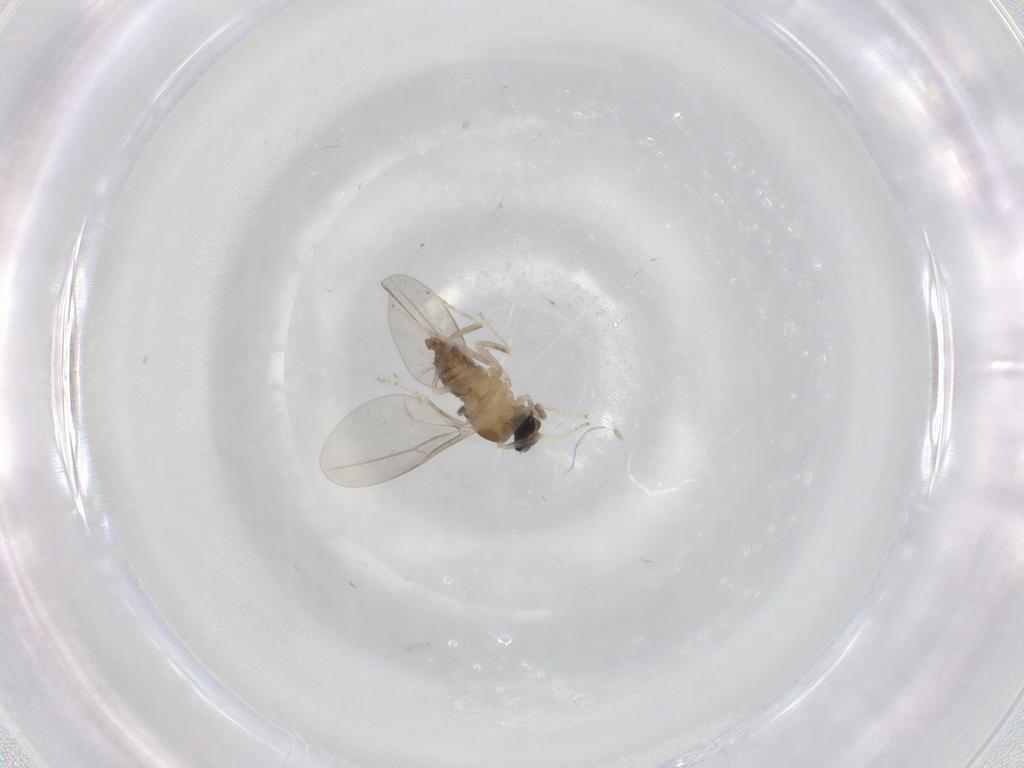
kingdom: Animalia
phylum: Arthropoda
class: Insecta
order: Diptera
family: Cecidomyiidae
